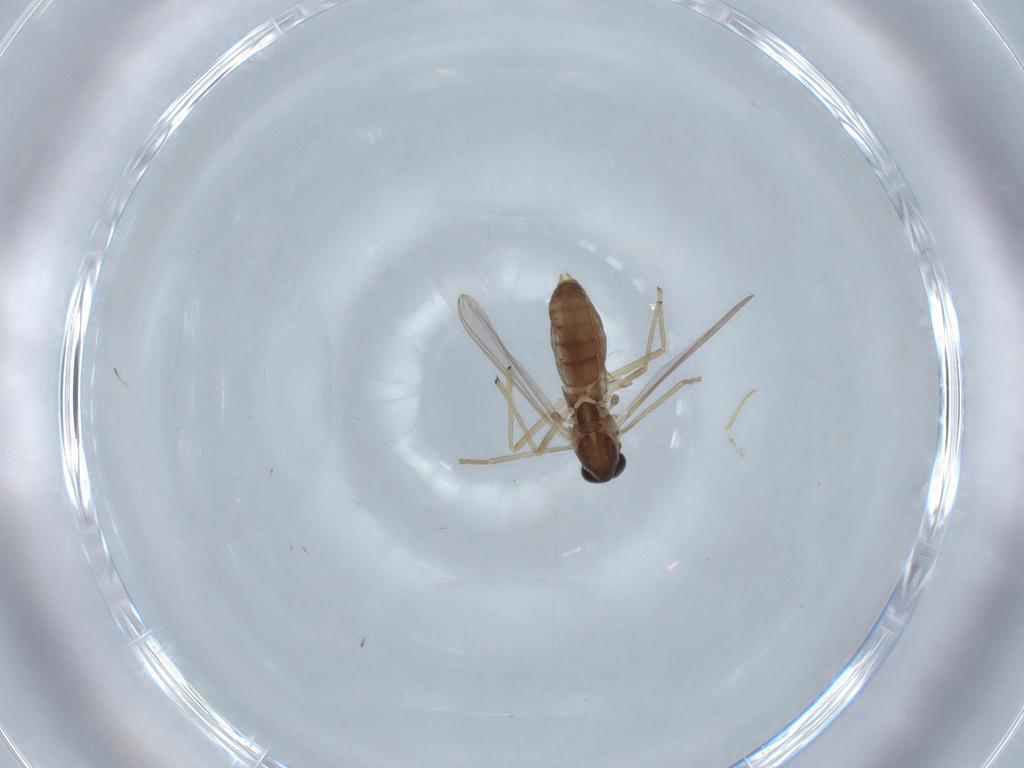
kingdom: Animalia
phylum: Arthropoda
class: Insecta
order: Diptera
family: Chironomidae
